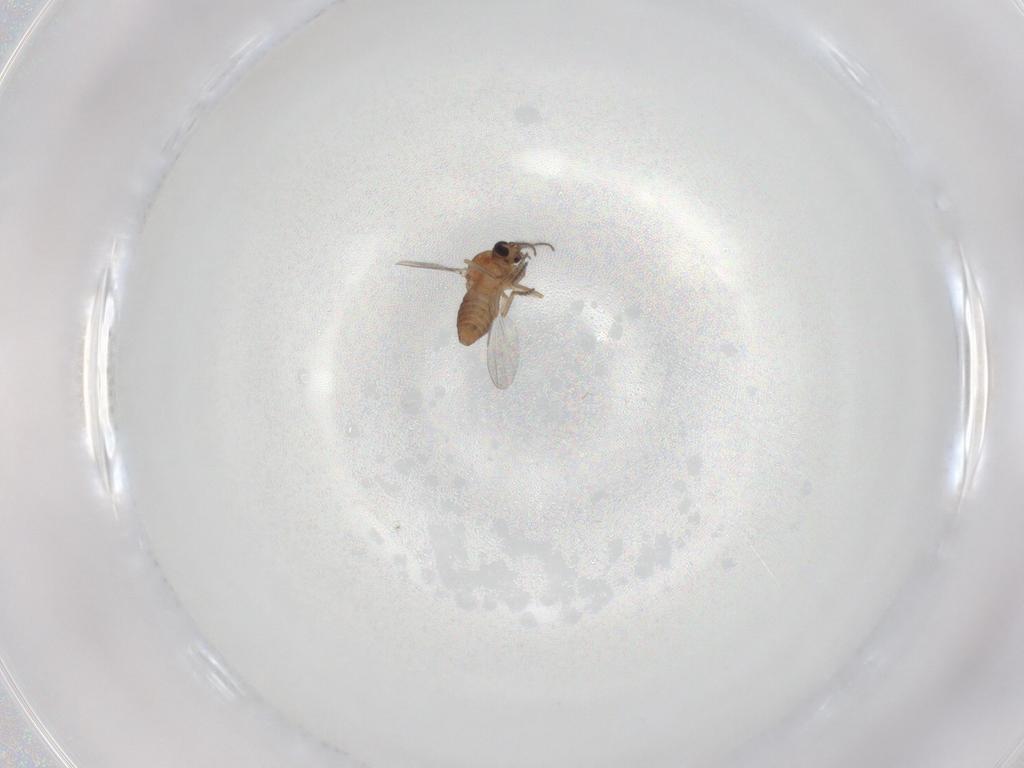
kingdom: Animalia
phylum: Arthropoda
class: Insecta
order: Diptera
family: Ceratopogonidae
